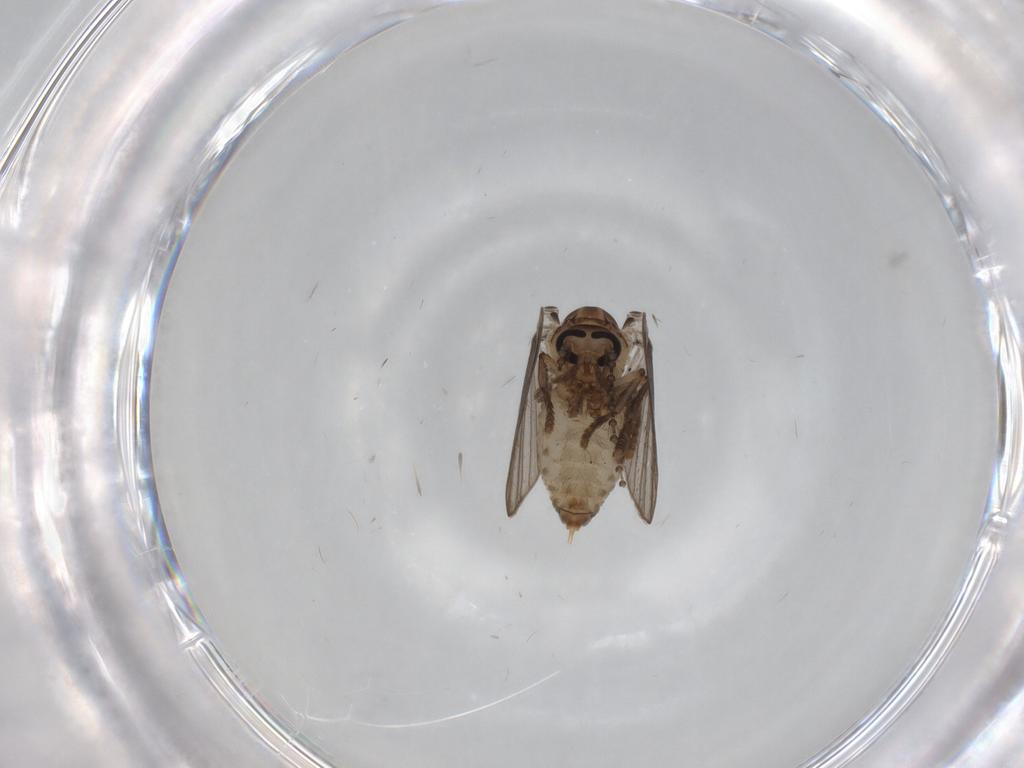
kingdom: Animalia
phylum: Arthropoda
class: Insecta
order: Diptera
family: Psychodidae
